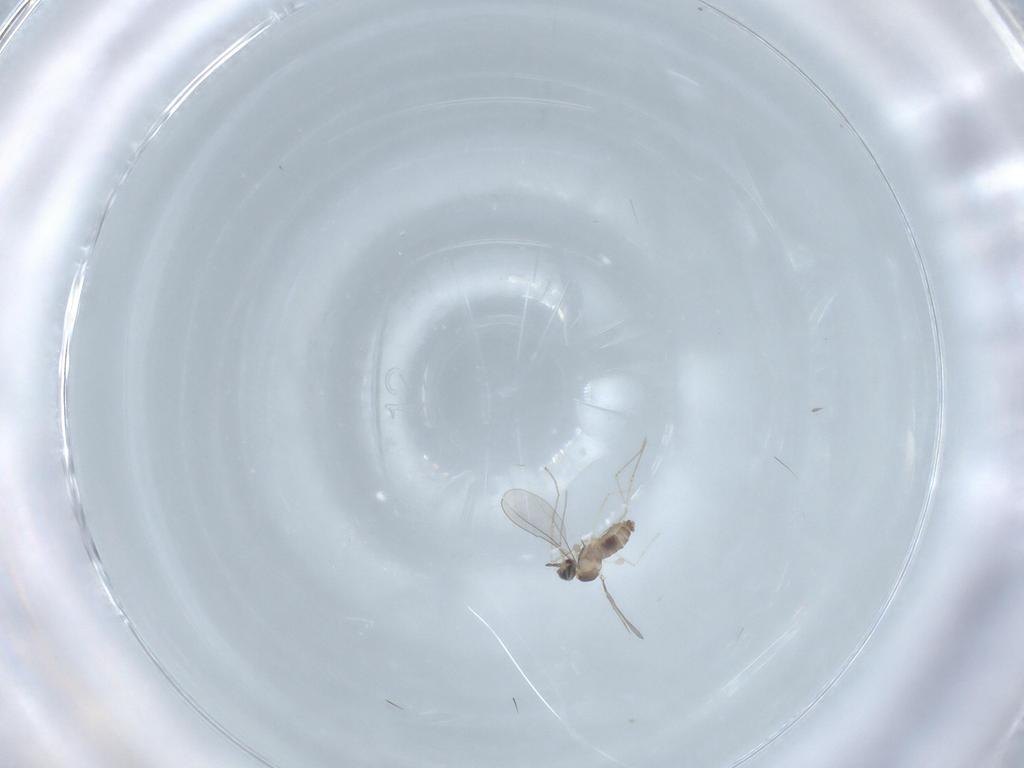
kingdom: Animalia
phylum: Arthropoda
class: Insecta
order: Diptera
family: Cecidomyiidae
